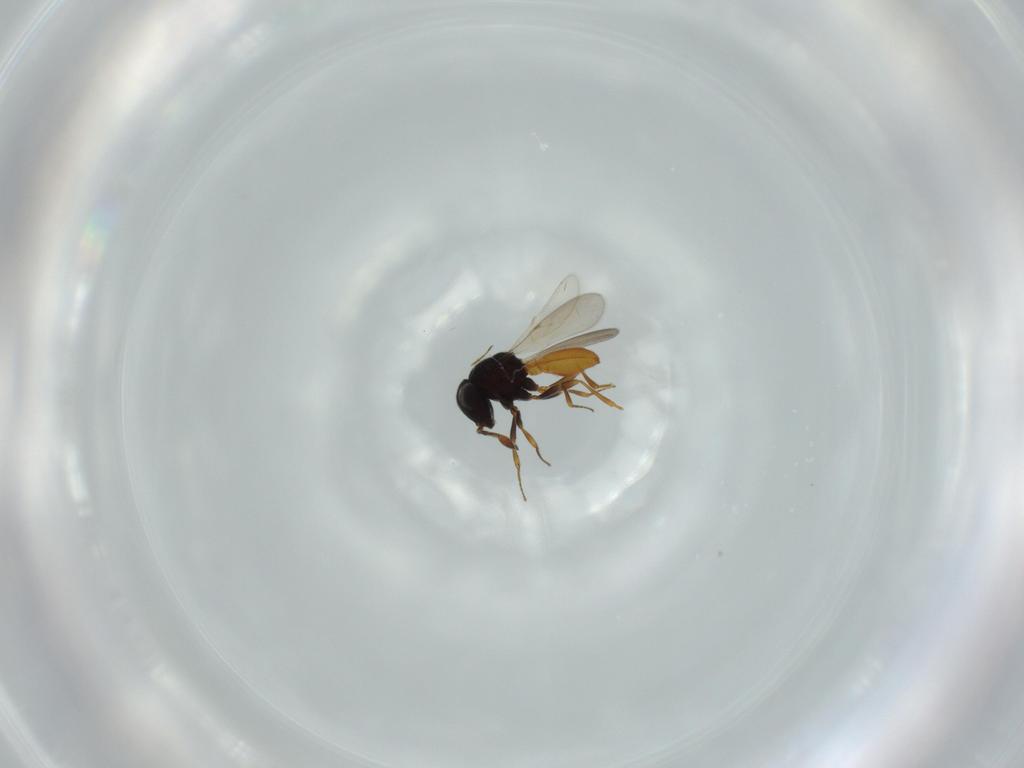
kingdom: Animalia
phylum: Arthropoda
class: Insecta
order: Hymenoptera
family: Scelionidae
